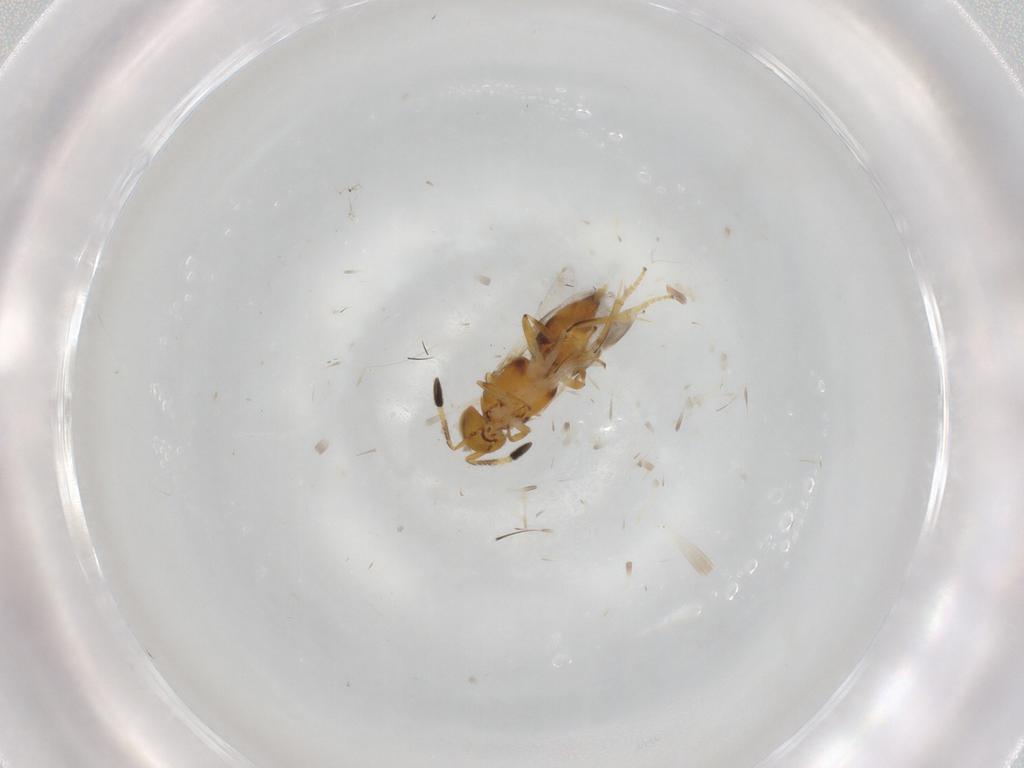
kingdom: Animalia
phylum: Arthropoda
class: Insecta
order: Hymenoptera
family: Encyrtidae
